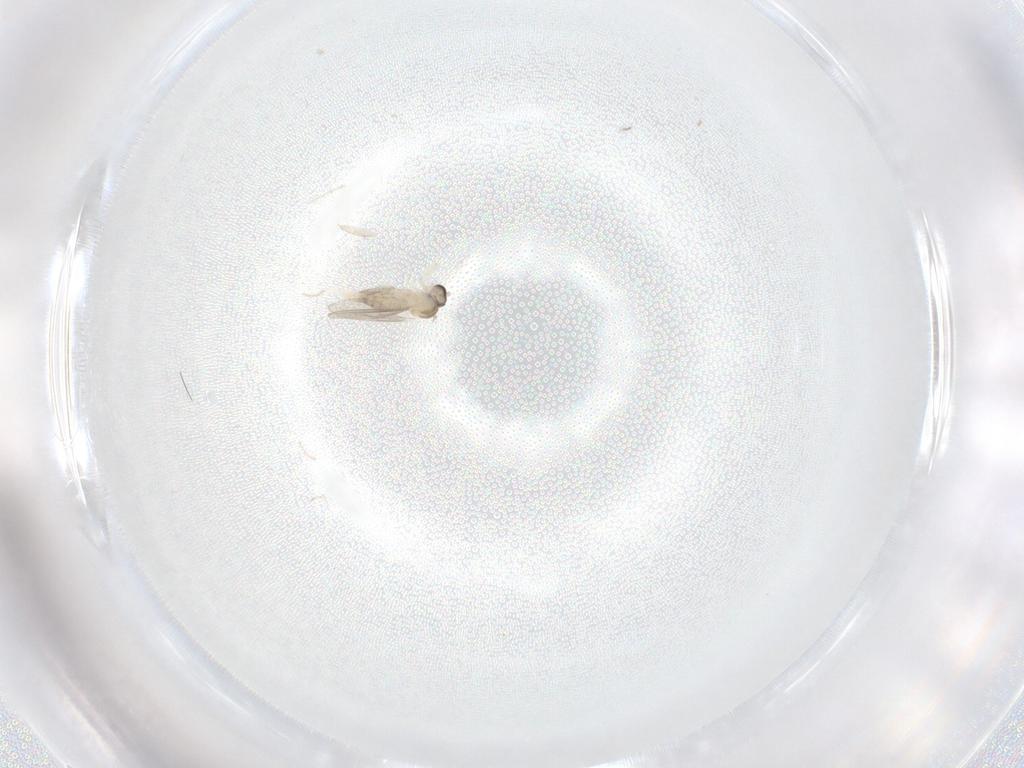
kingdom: Animalia
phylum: Arthropoda
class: Insecta
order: Diptera
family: Cecidomyiidae
